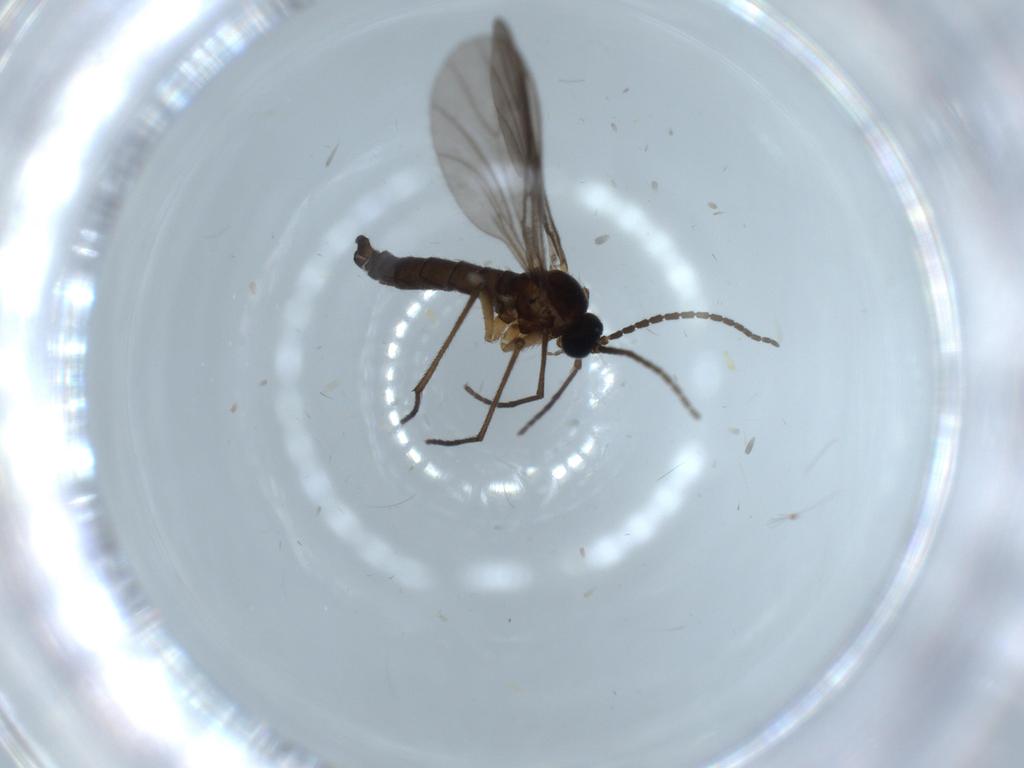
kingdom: Animalia
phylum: Arthropoda
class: Insecta
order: Diptera
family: Sciaridae
